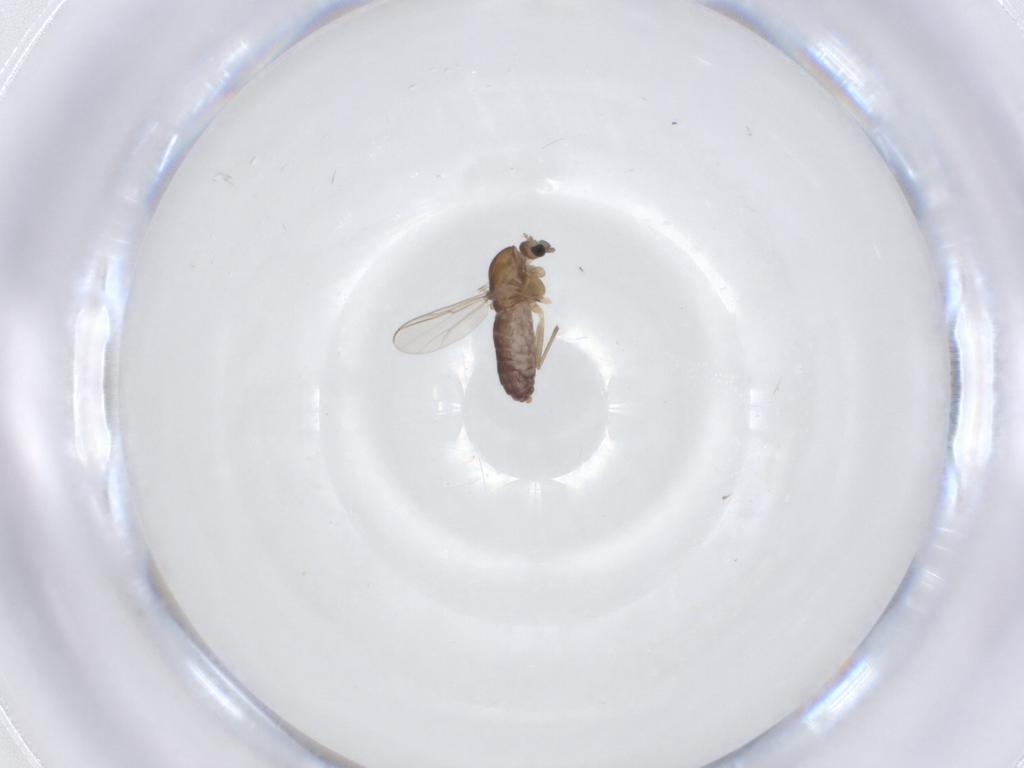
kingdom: Animalia
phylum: Arthropoda
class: Insecta
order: Diptera
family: Chironomidae
